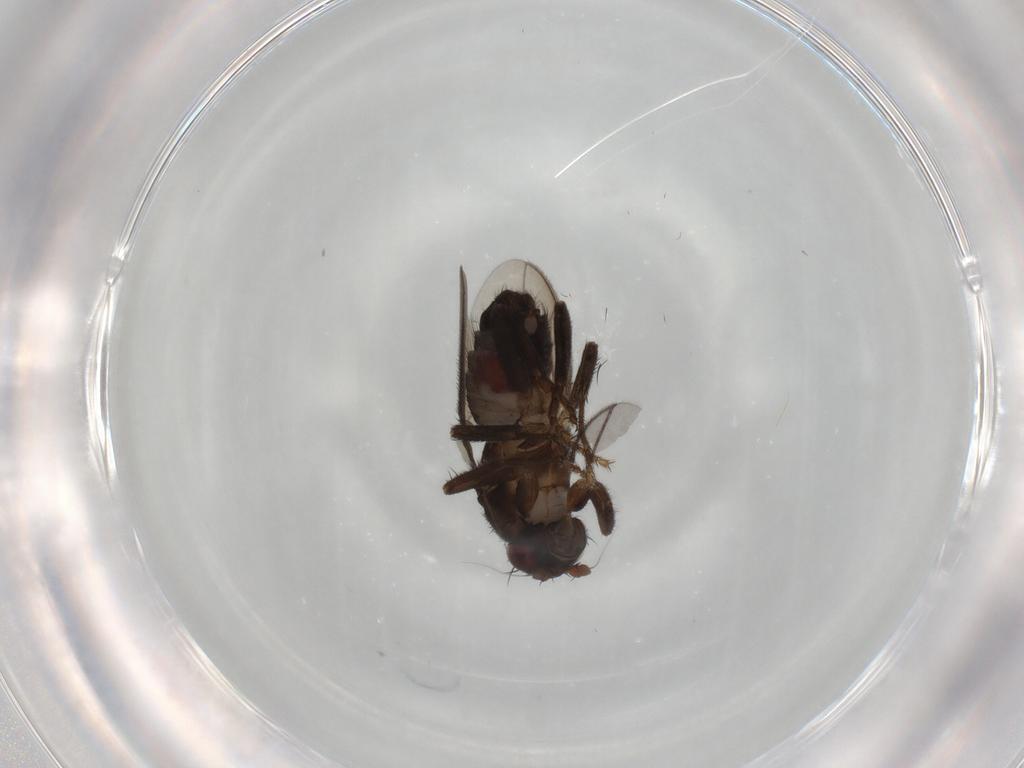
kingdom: Animalia
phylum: Arthropoda
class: Insecta
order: Diptera
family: Sphaeroceridae
